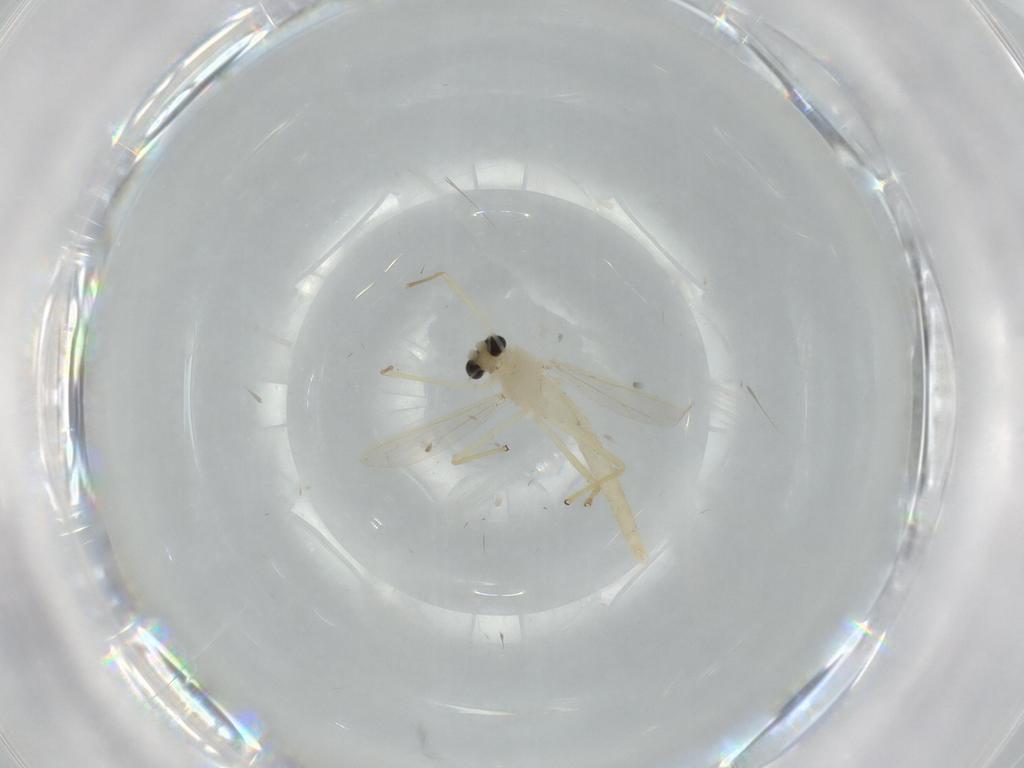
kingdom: Animalia
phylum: Arthropoda
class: Insecta
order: Diptera
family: Chironomidae
